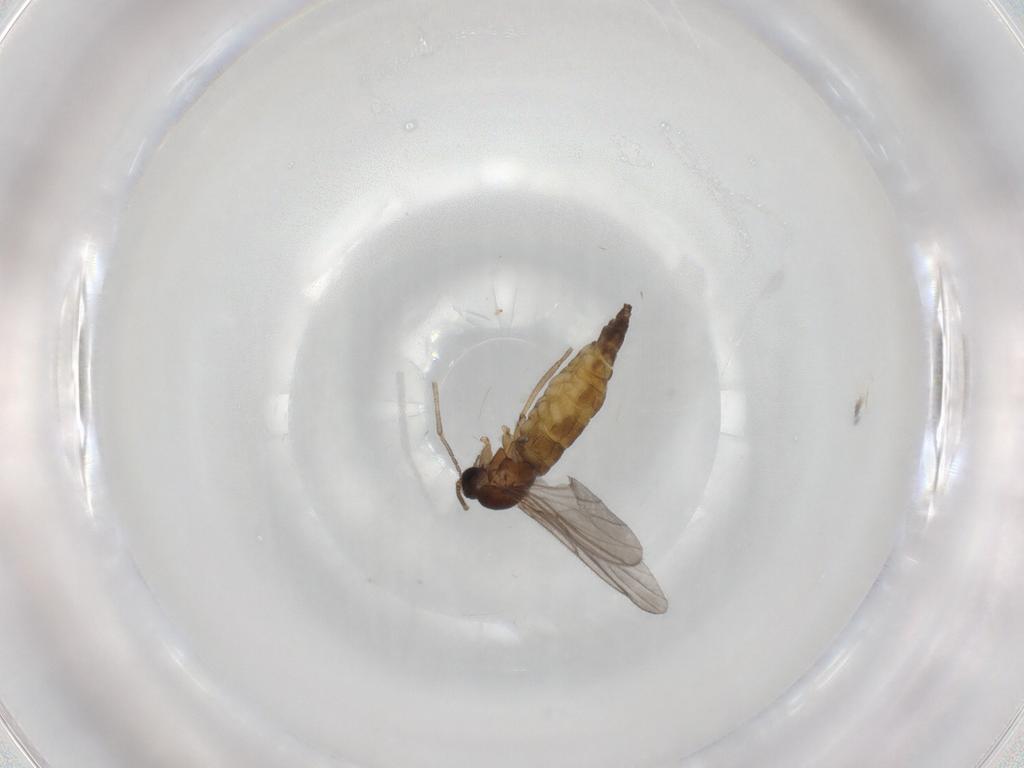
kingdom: Animalia
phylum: Arthropoda
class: Insecta
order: Diptera
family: Sciaridae
